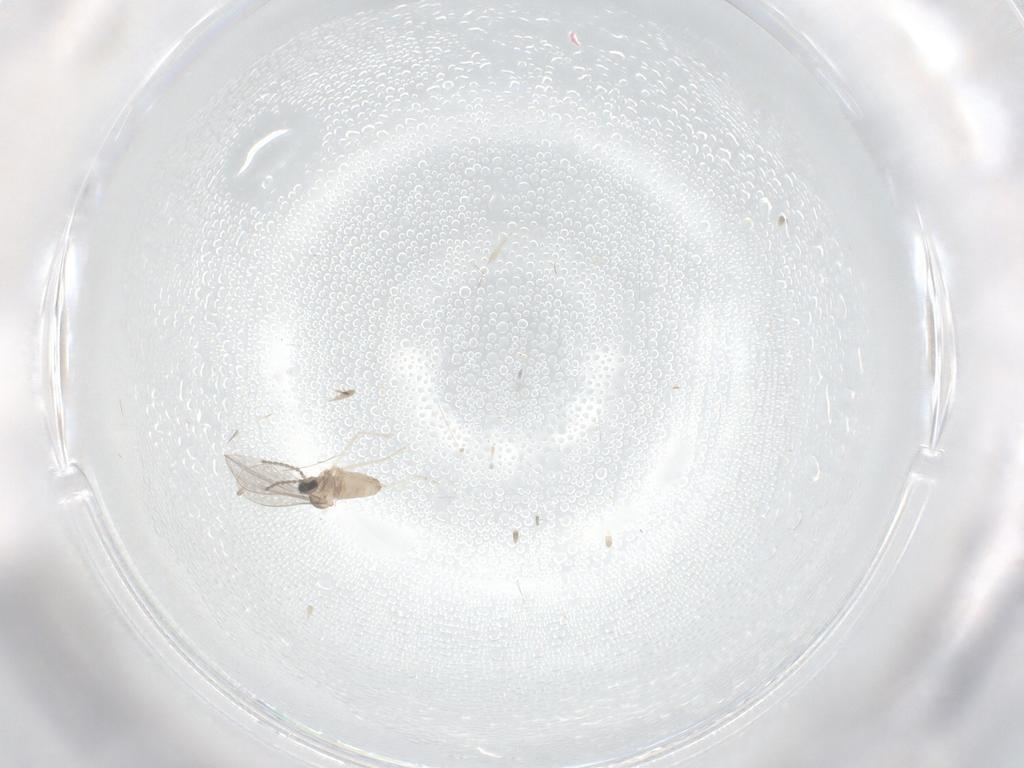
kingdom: Animalia
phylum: Arthropoda
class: Insecta
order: Diptera
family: Cecidomyiidae
